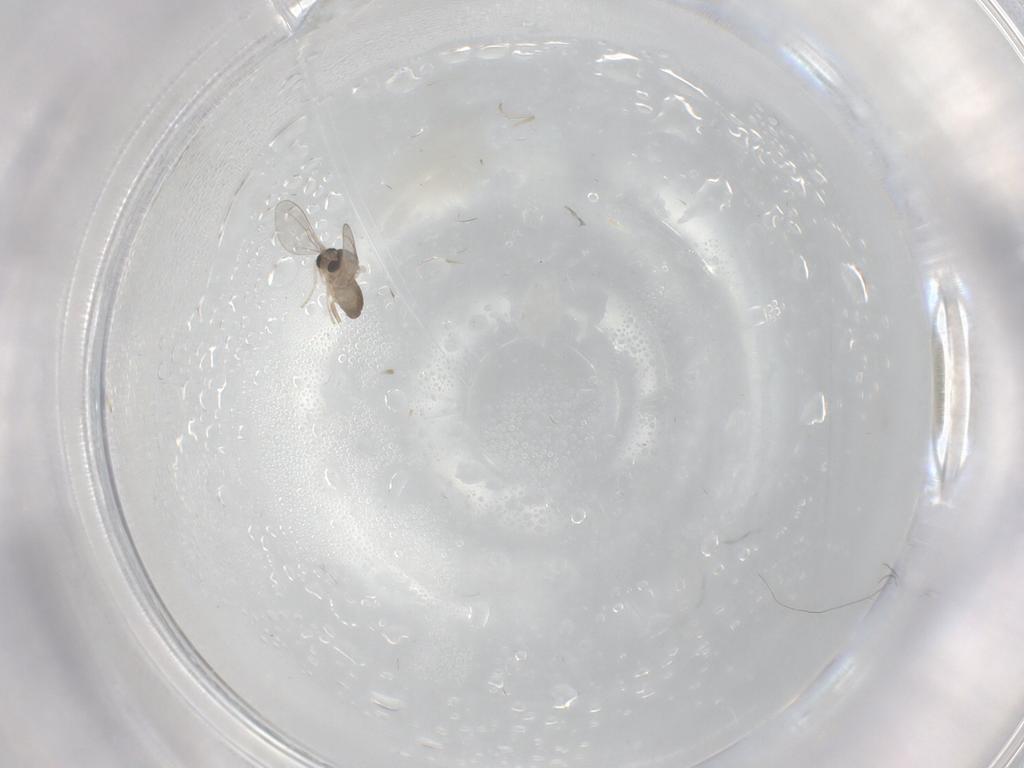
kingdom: Animalia
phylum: Arthropoda
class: Insecta
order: Diptera
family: Cecidomyiidae
